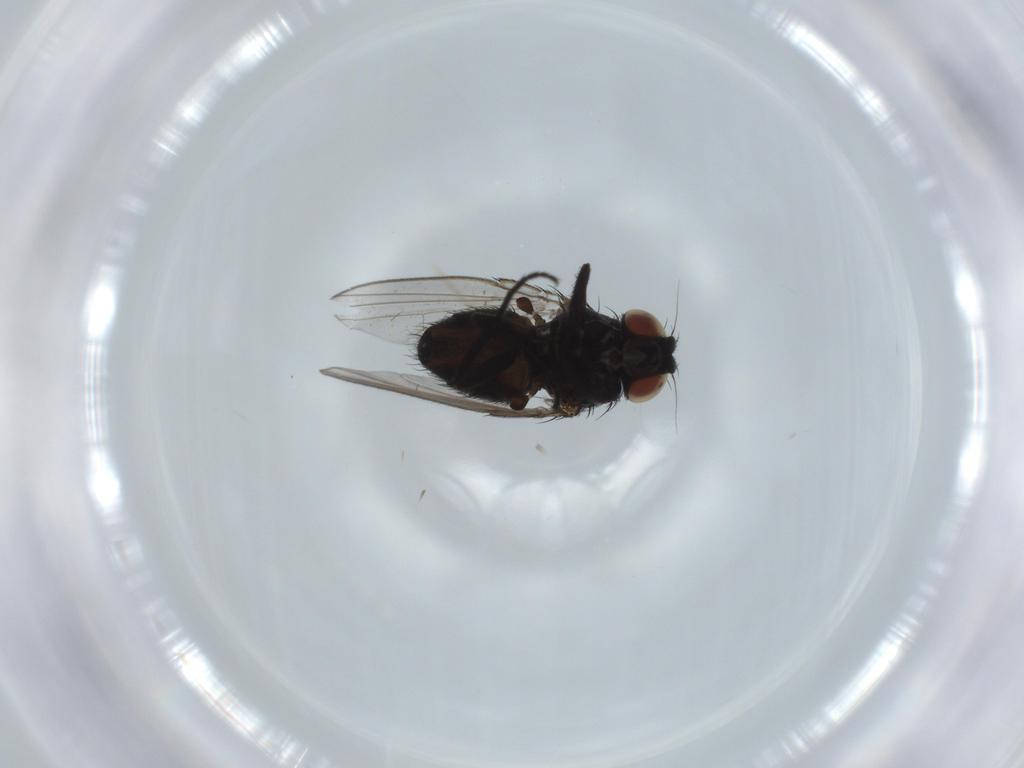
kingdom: Animalia
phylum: Arthropoda
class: Insecta
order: Diptera
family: Milichiidae
